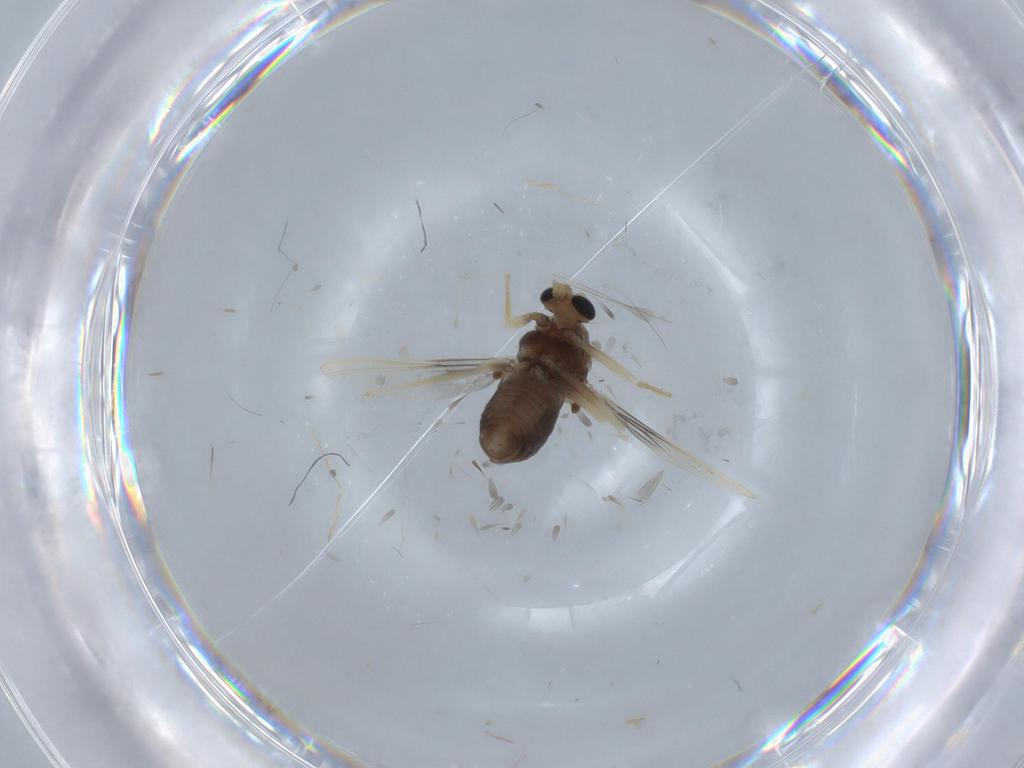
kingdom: Animalia
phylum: Arthropoda
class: Insecta
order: Diptera
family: Chironomidae
